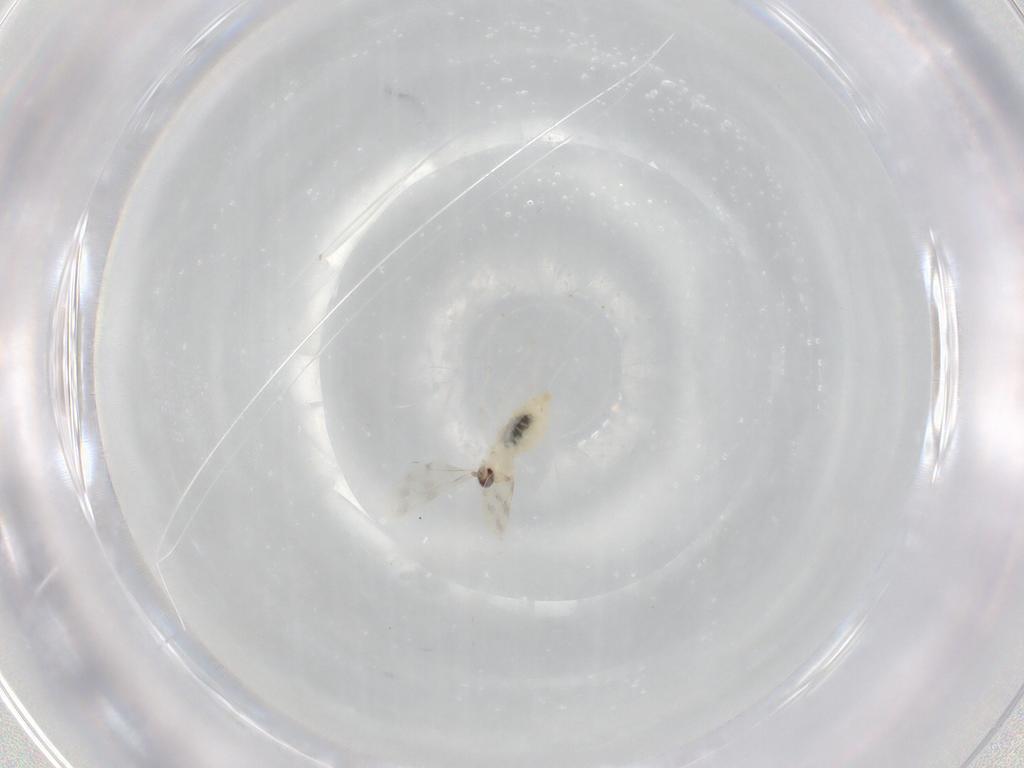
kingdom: Animalia
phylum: Arthropoda
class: Insecta
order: Diptera
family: Cecidomyiidae
